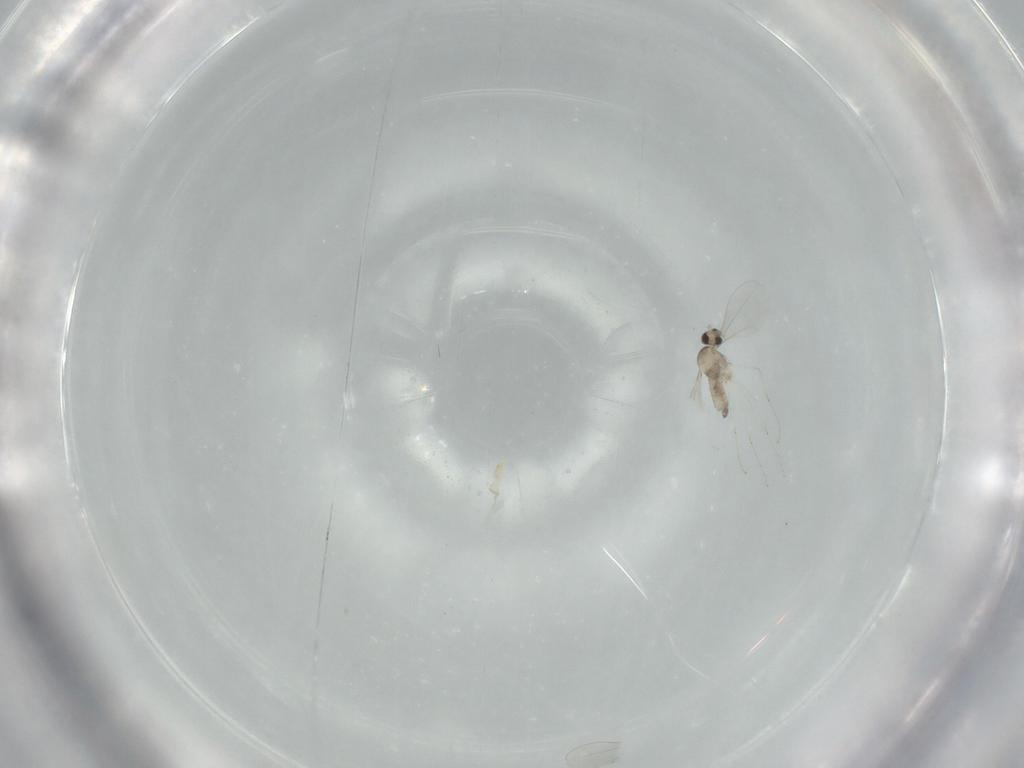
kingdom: Animalia
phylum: Arthropoda
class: Insecta
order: Diptera
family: Cecidomyiidae
